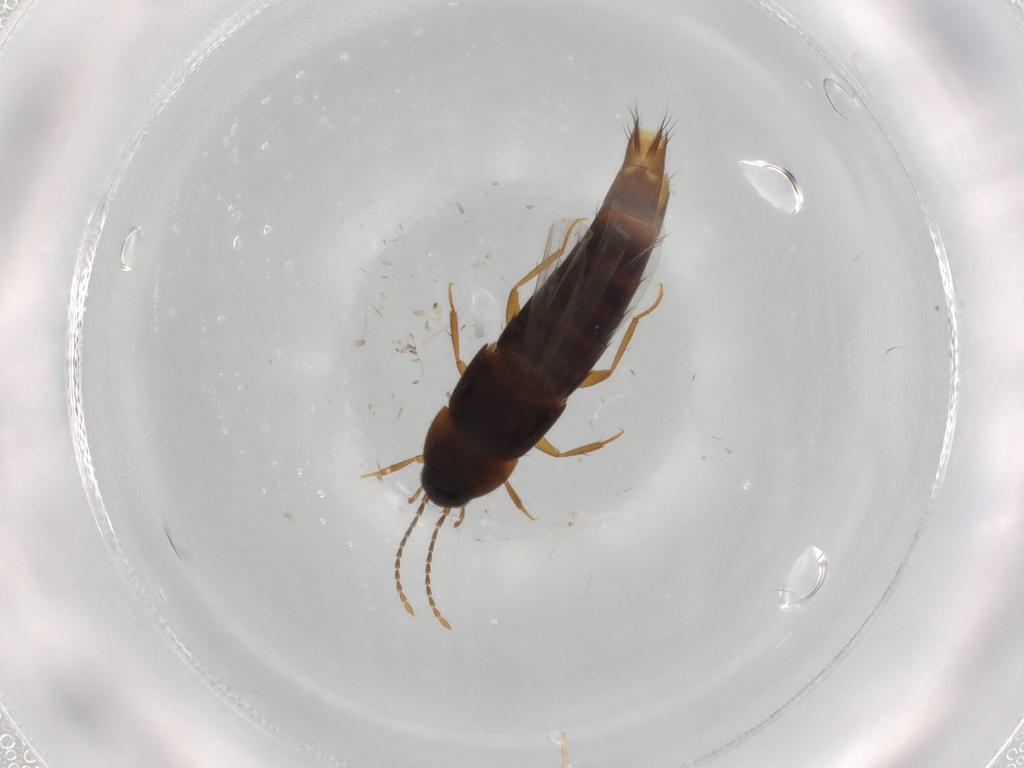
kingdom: Animalia
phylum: Arthropoda
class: Insecta
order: Coleoptera
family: Staphylinidae
